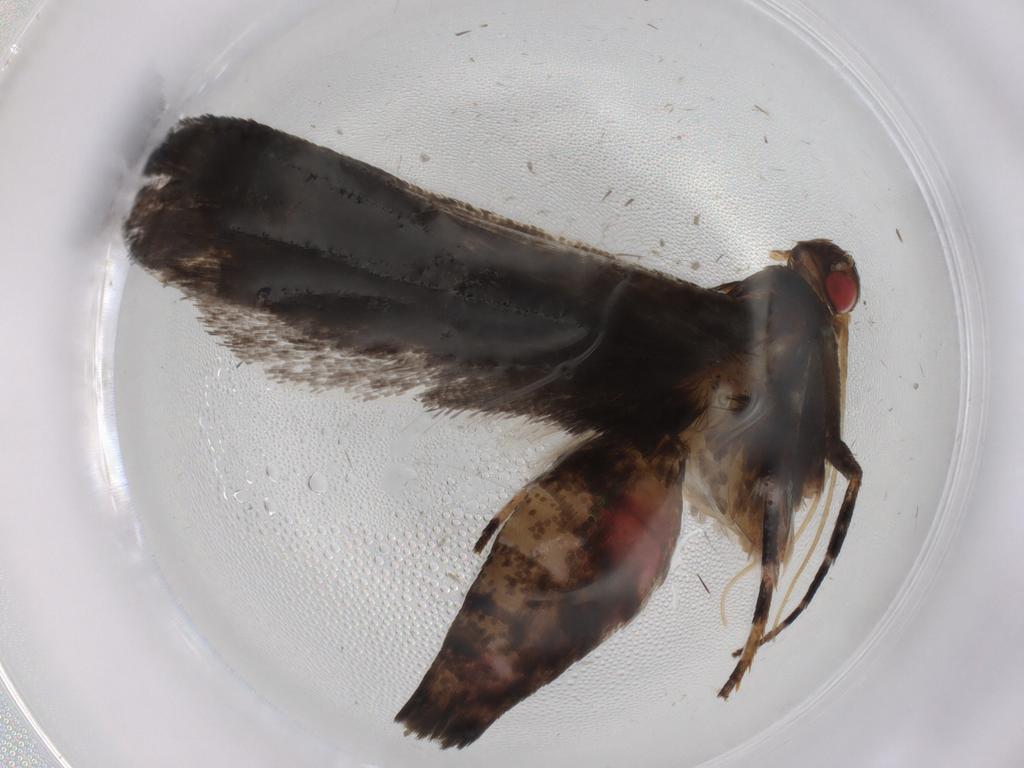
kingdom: Animalia
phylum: Arthropoda
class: Insecta
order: Lepidoptera
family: Gelechiidae
